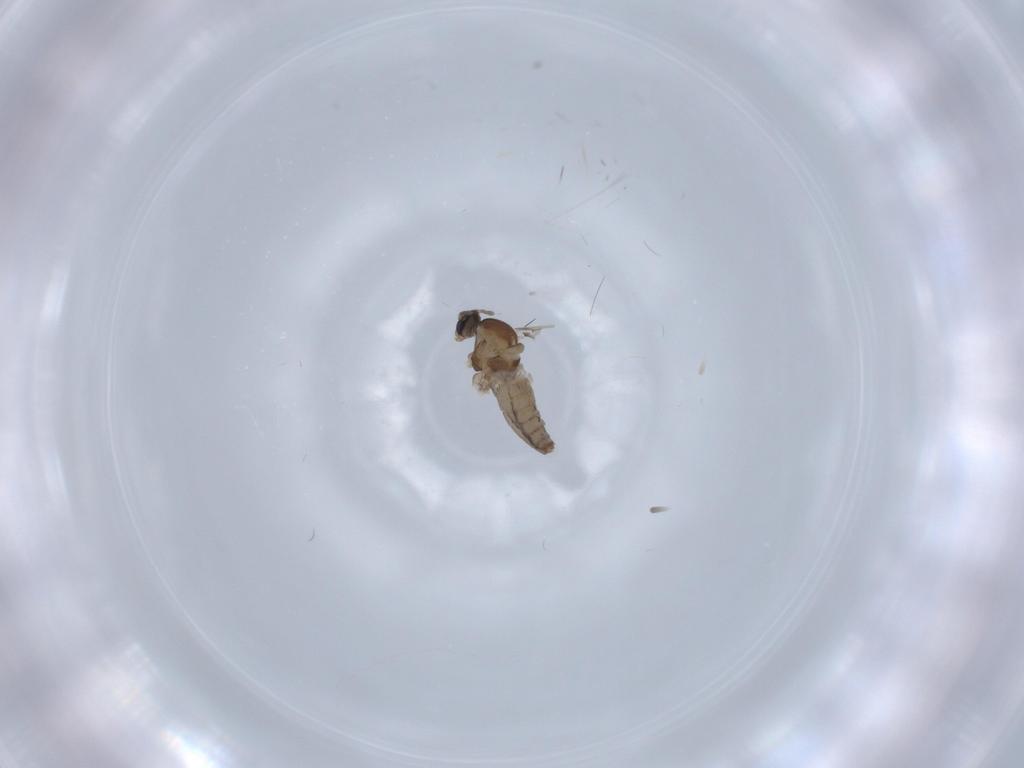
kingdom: Animalia
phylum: Arthropoda
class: Insecta
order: Diptera
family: Cecidomyiidae
